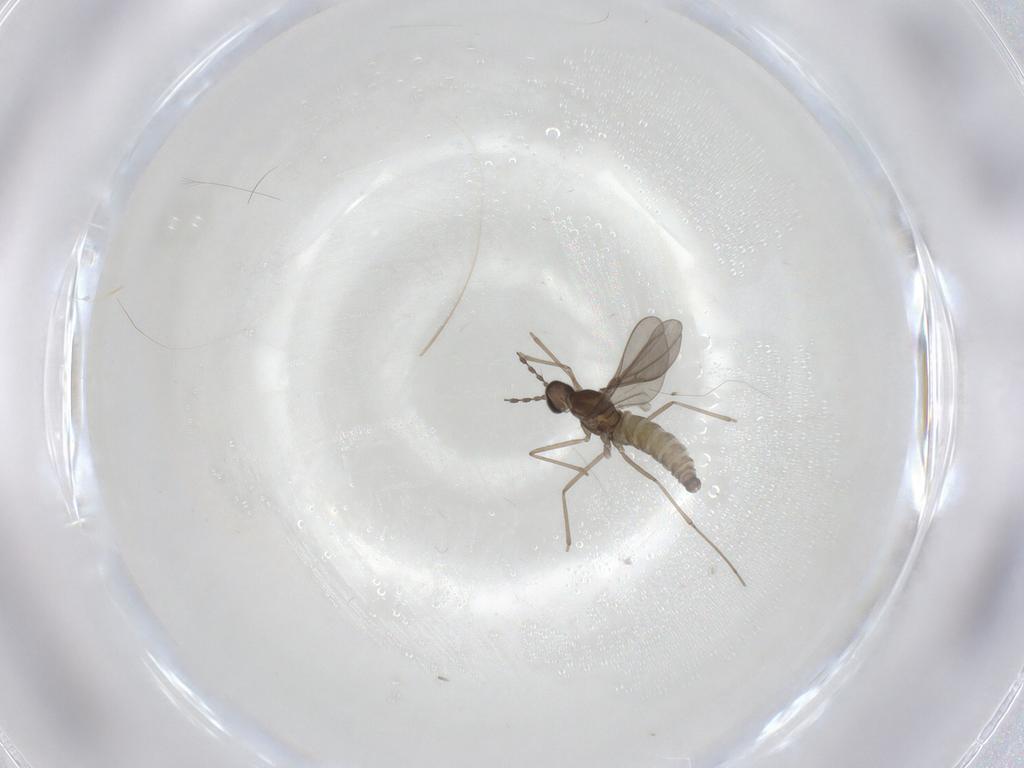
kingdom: Animalia
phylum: Arthropoda
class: Insecta
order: Diptera
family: Cecidomyiidae
